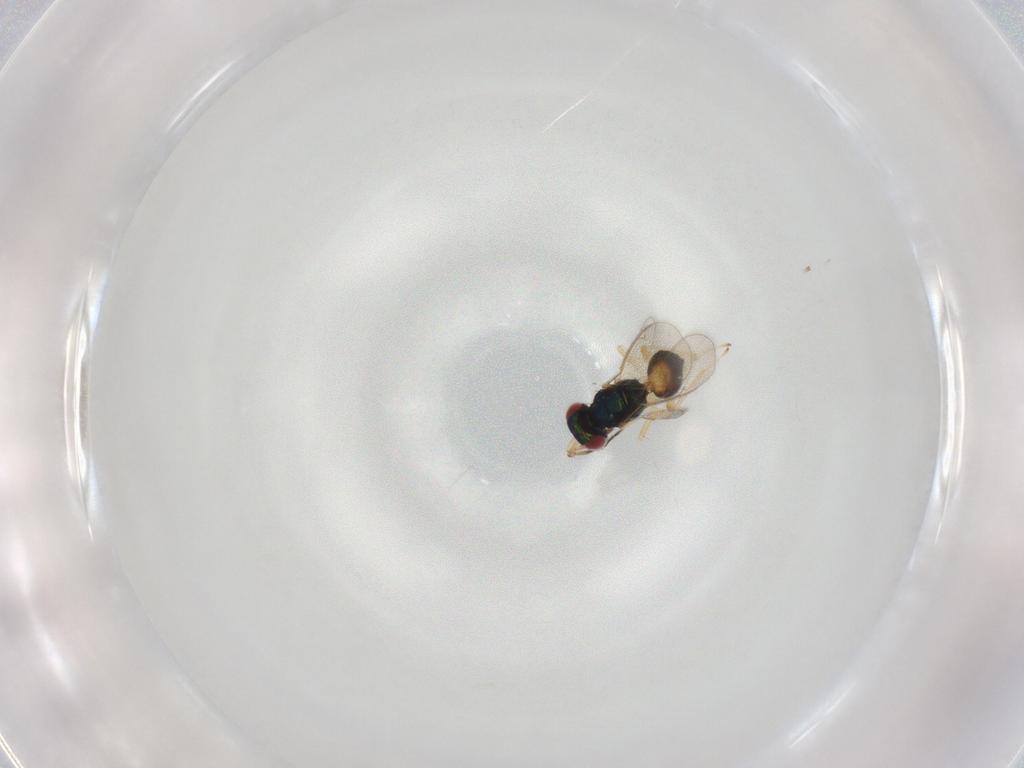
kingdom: Animalia
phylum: Arthropoda
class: Insecta
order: Hymenoptera
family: Eulophidae
